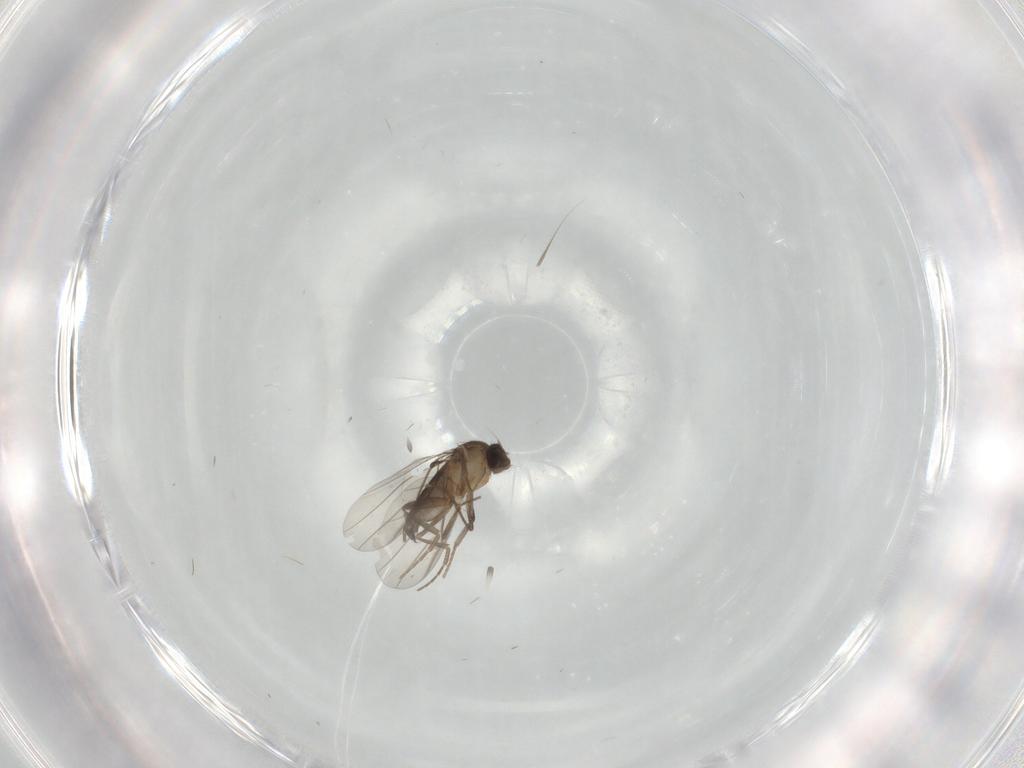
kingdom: Animalia
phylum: Arthropoda
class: Insecta
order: Diptera
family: Phoridae
